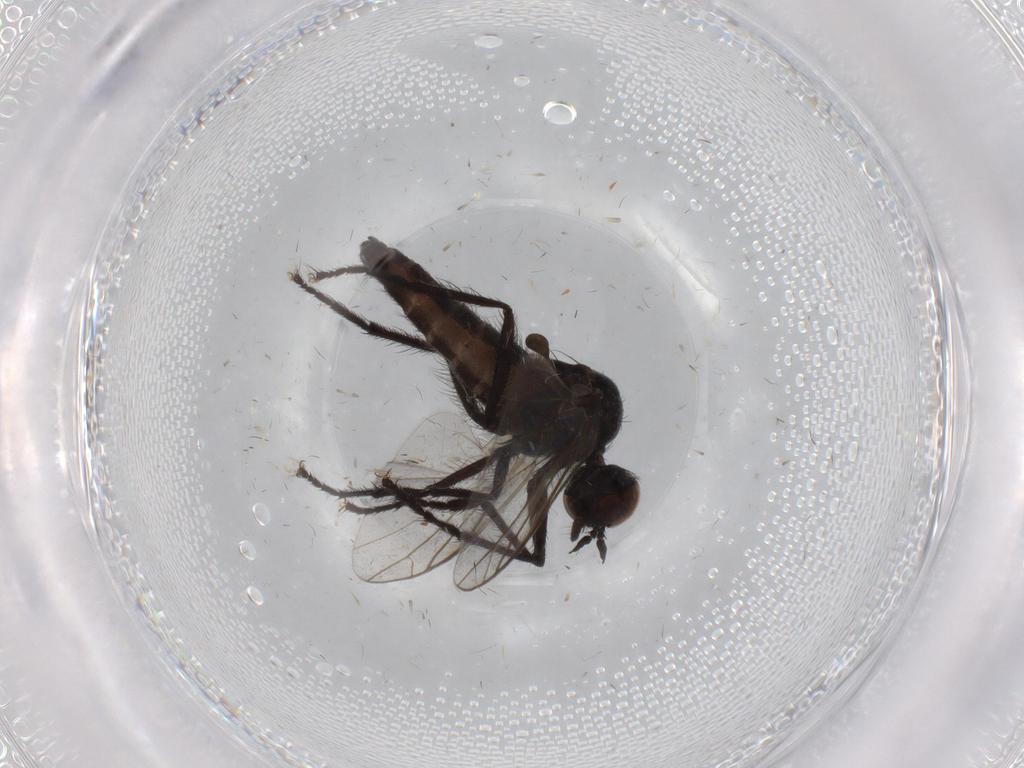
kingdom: Animalia
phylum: Arthropoda
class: Insecta
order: Diptera
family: Empididae
